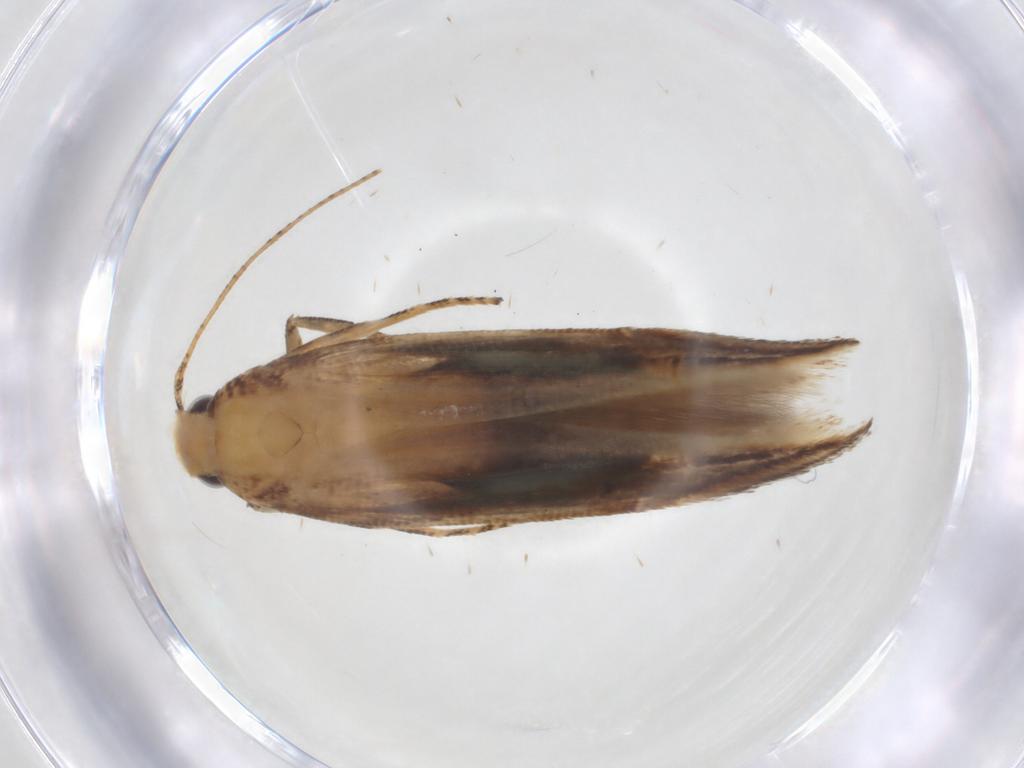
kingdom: Animalia
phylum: Arthropoda
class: Insecta
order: Lepidoptera
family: Momphidae
